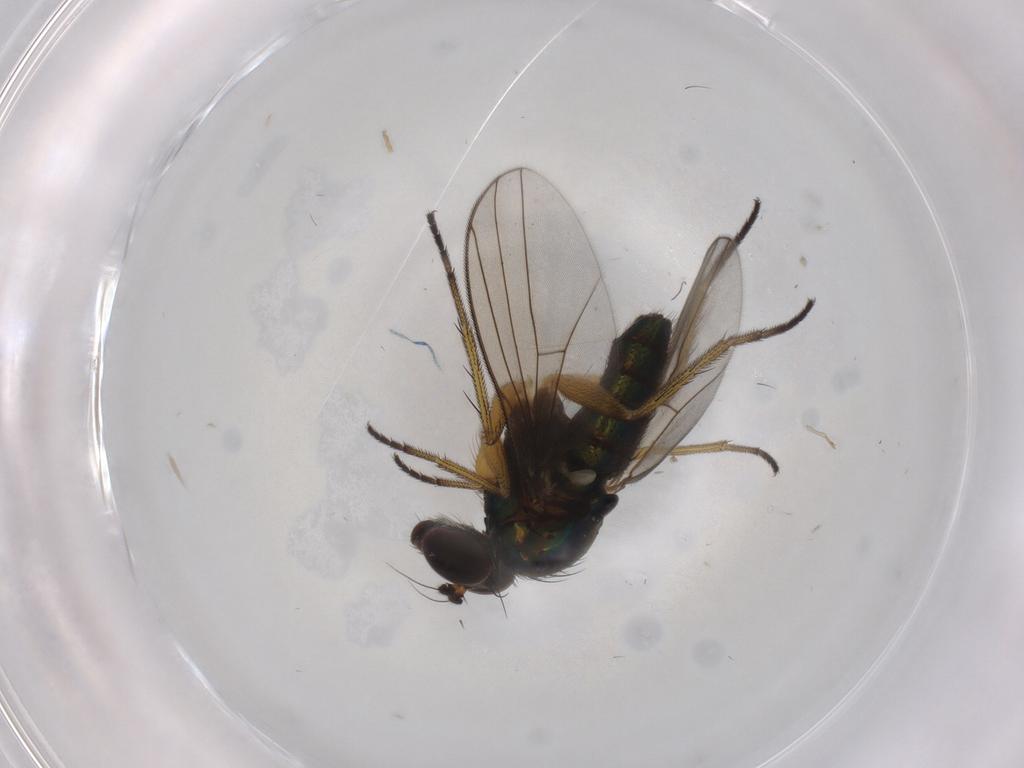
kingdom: Animalia
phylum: Arthropoda
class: Insecta
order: Diptera
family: Dolichopodidae
